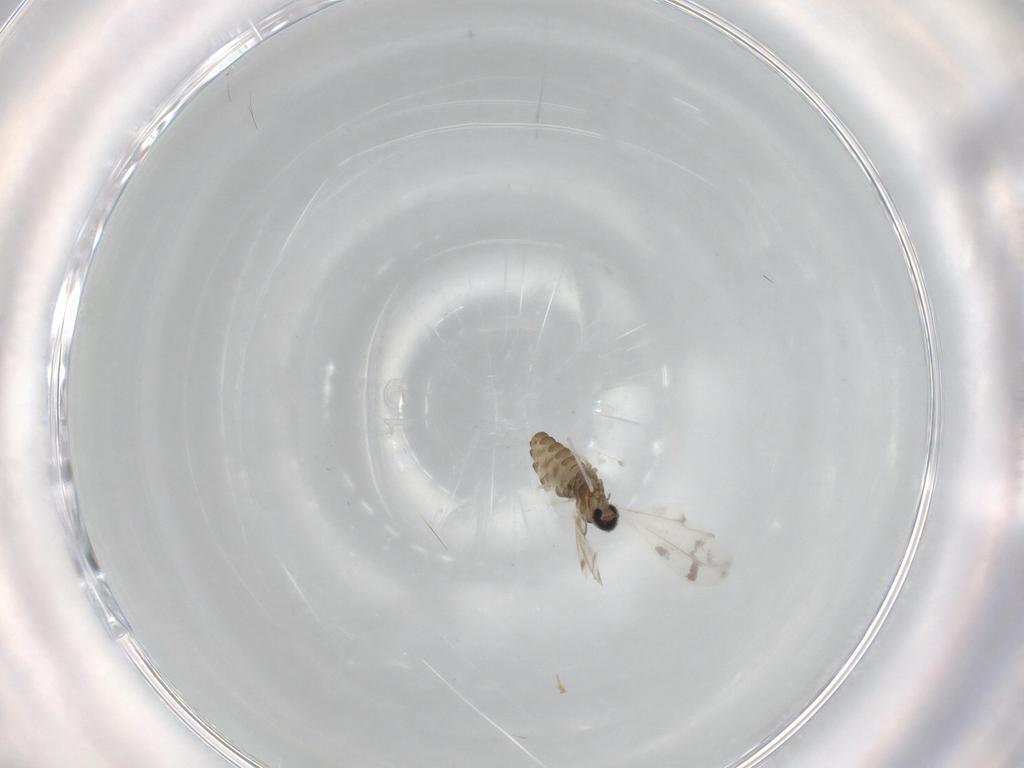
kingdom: Animalia
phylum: Arthropoda
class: Insecta
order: Diptera
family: Cecidomyiidae
